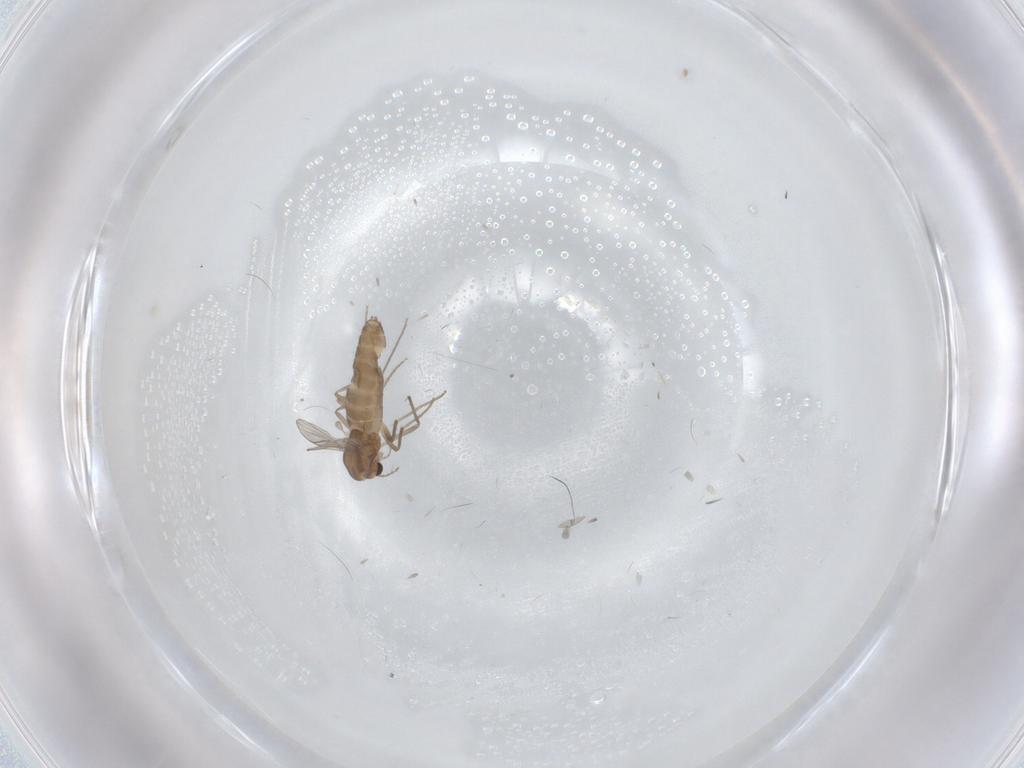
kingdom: Animalia
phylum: Arthropoda
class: Insecta
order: Diptera
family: Chironomidae
